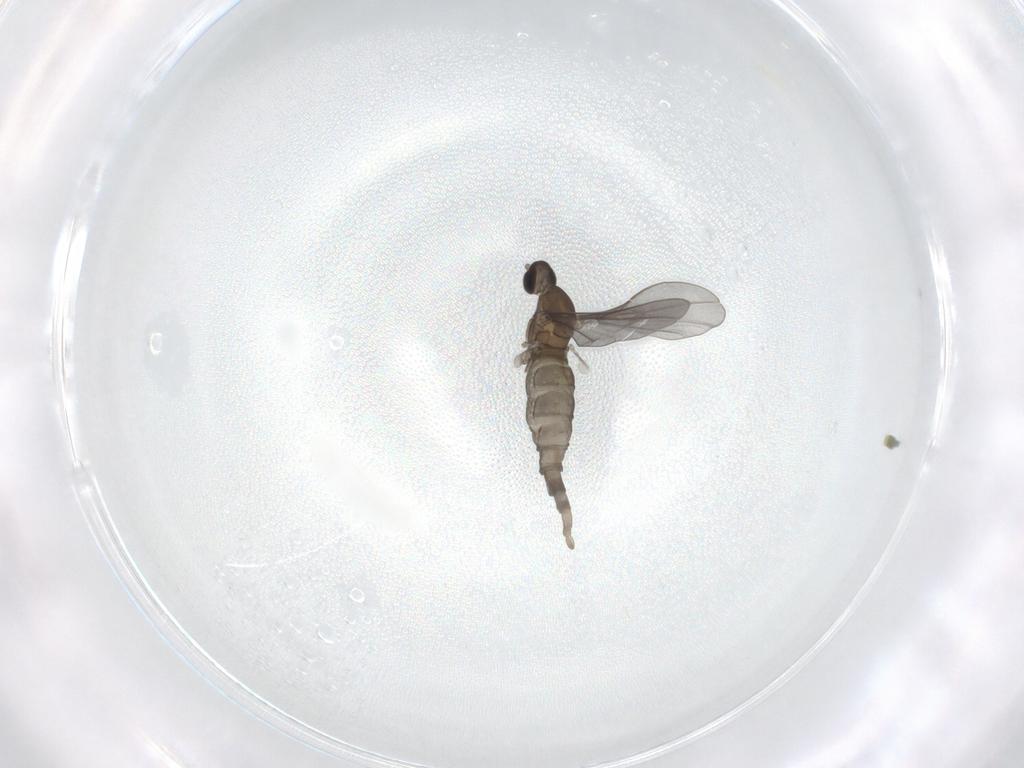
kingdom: Animalia
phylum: Arthropoda
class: Insecta
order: Diptera
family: Cecidomyiidae
